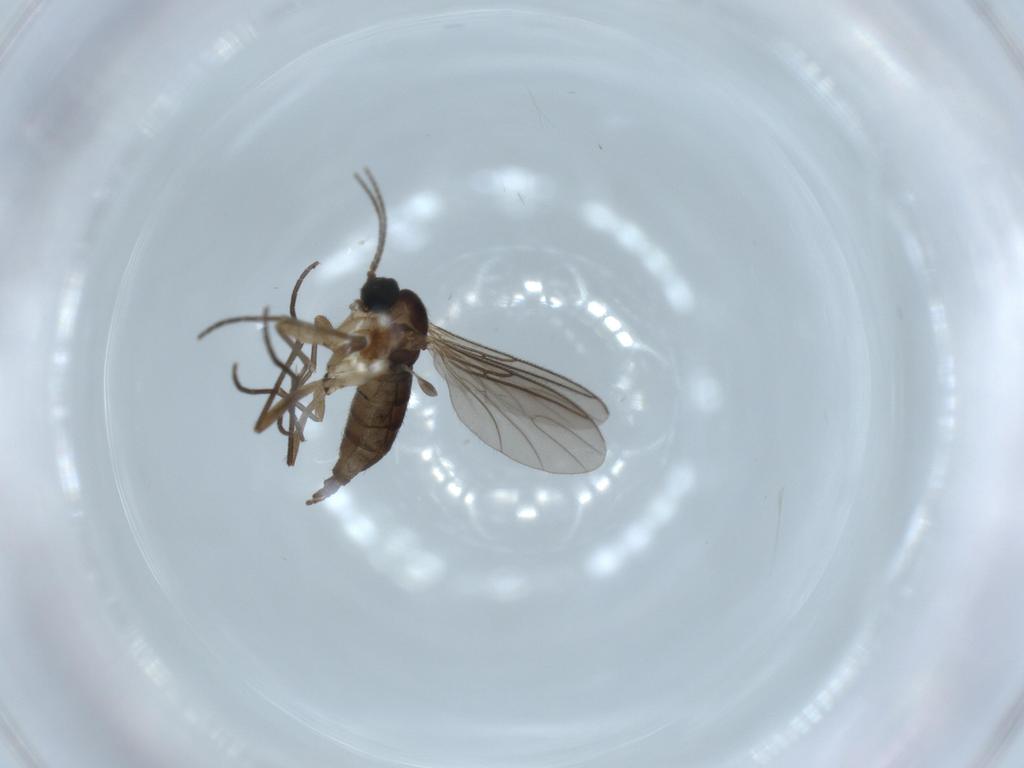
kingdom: Animalia
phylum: Arthropoda
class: Insecta
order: Diptera
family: Sciaridae
